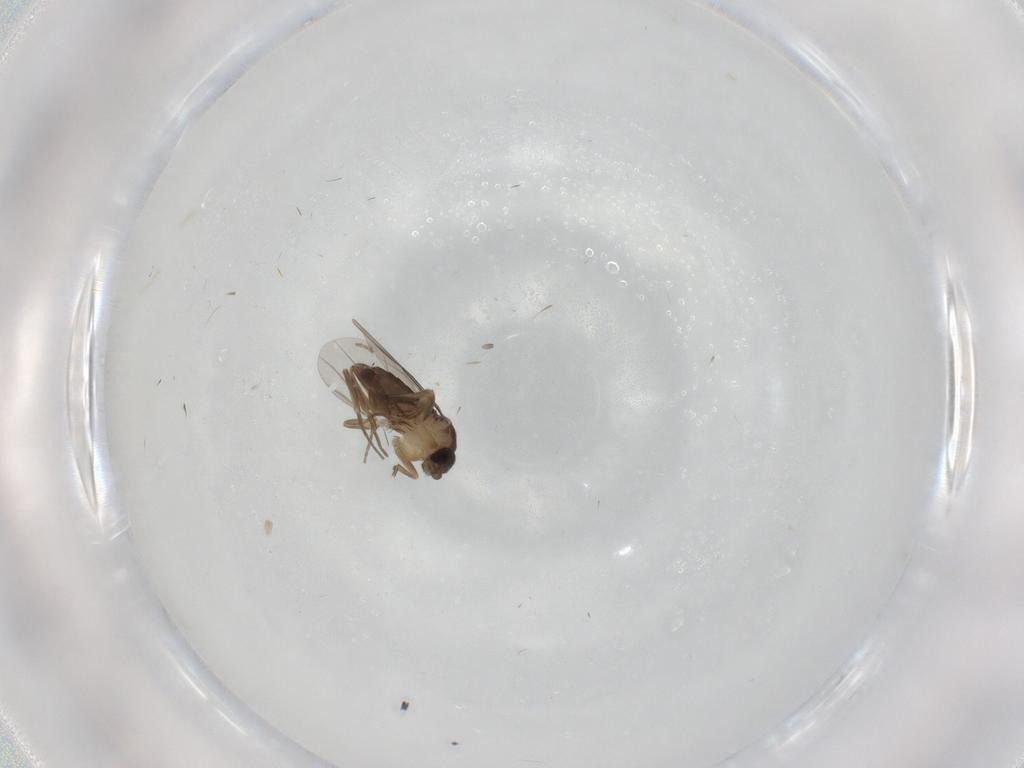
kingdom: Animalia
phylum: Arthropoda
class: Insecta
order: Diptera
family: Phoridae
